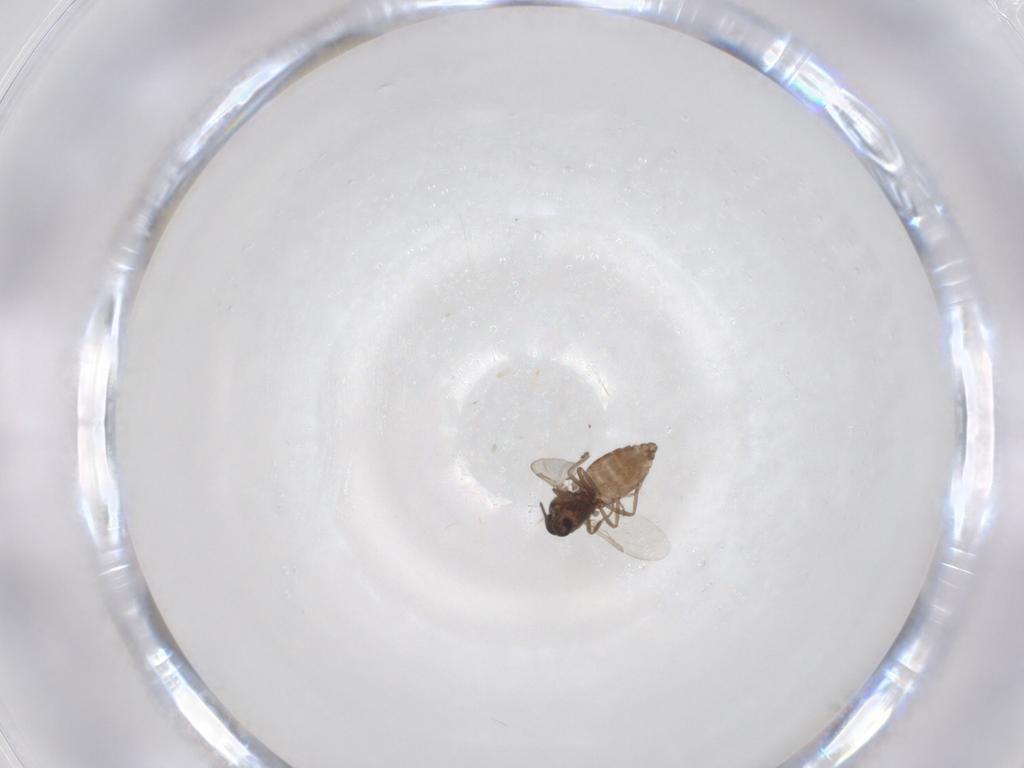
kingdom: Animalia
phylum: Arthropoda
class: Insecta
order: Diptera
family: Ceratopogonidae
